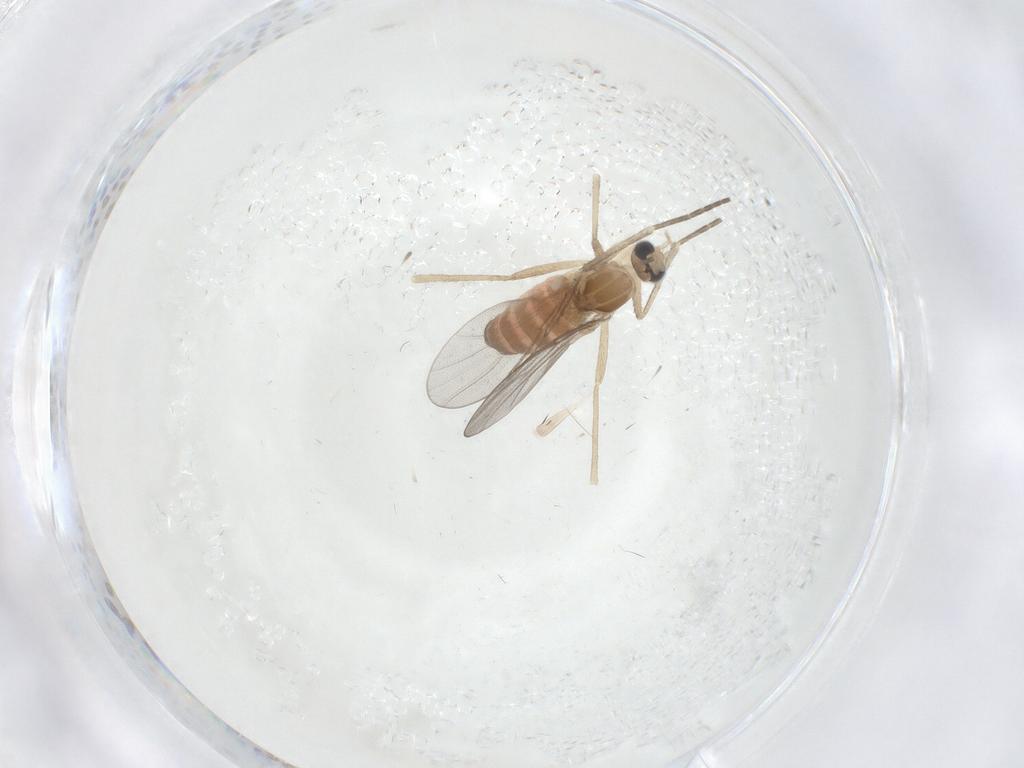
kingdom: Animalia
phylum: Arthropoda
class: Insecta
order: Diptera
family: Cecidomyiidae
